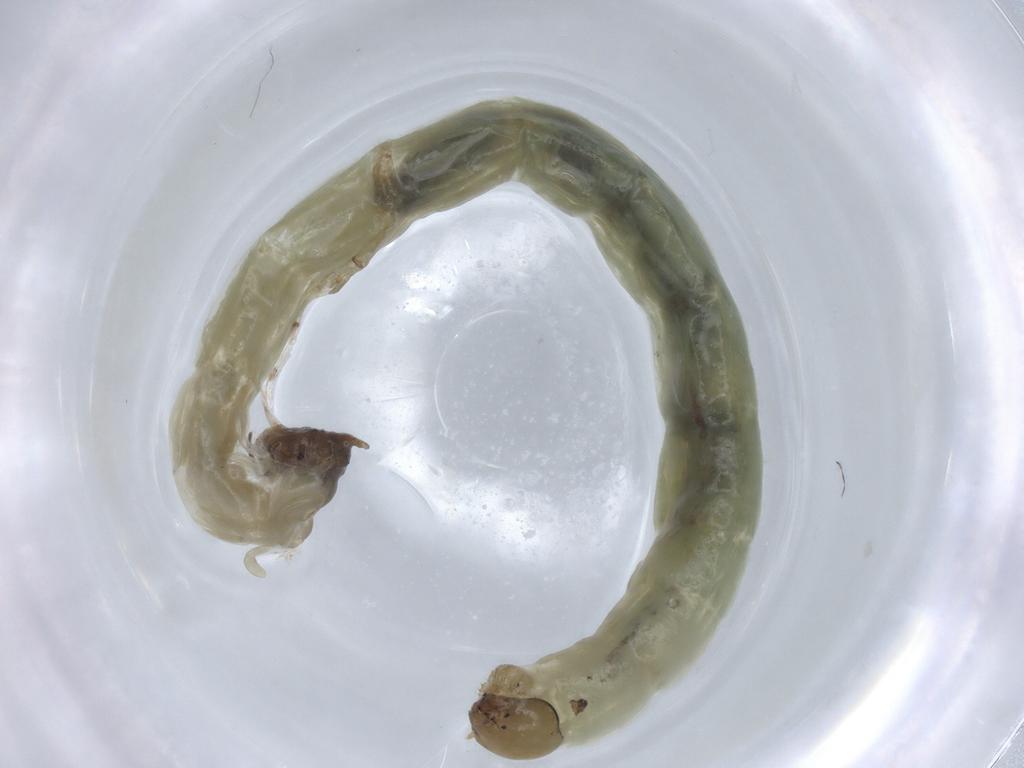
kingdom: Animalia
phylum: Arthropoda
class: Insecta
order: Diptera
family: Chironomidae
